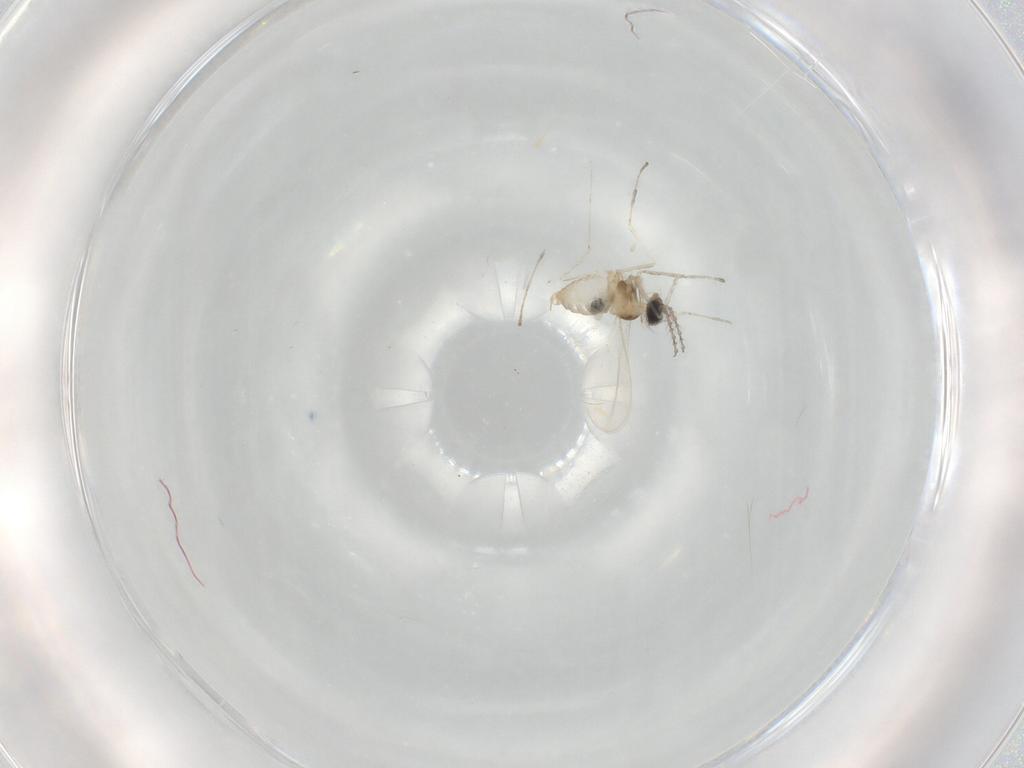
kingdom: Animalia
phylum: Arthropoda
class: Insecta
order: Diptera
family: Cecidomyiidae
